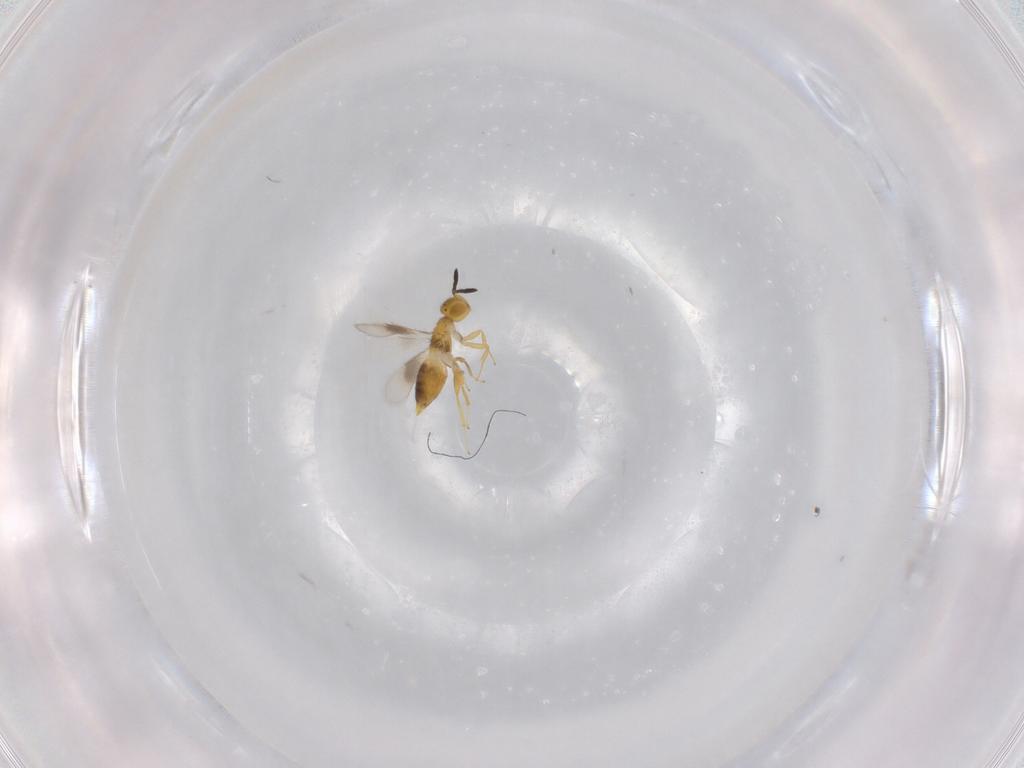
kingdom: Animalia
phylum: Arthropoda
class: Insecta
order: Hymenoptera
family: Encyrtidae
